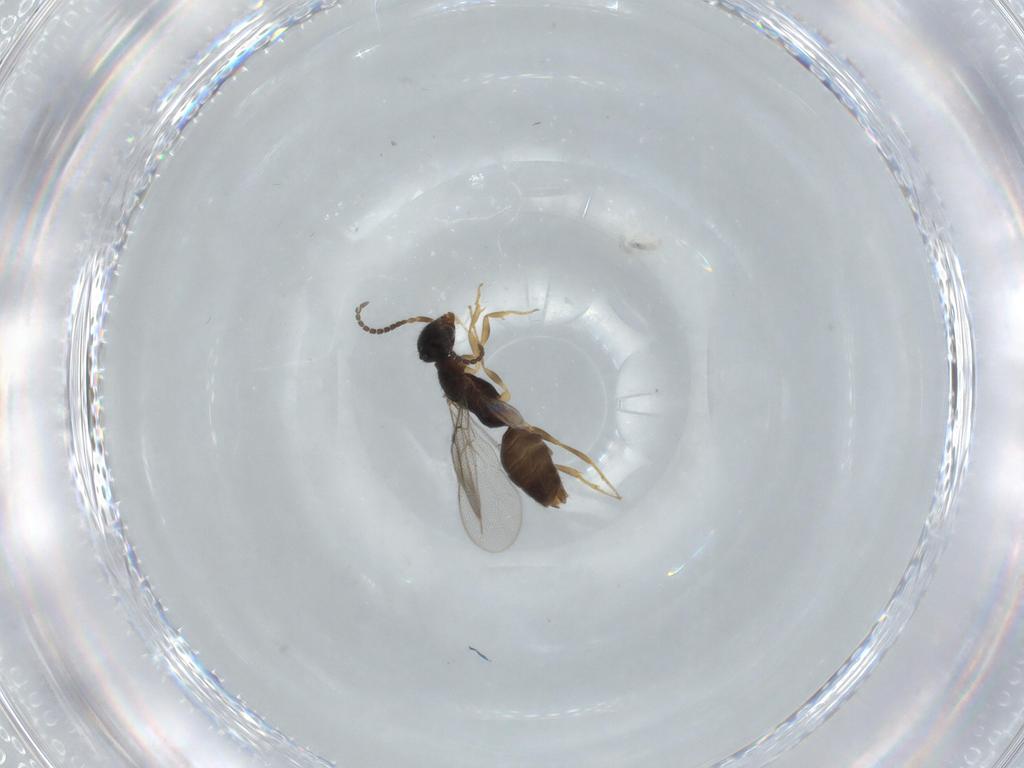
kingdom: Animalia
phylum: Arthropoda
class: Insecta
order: Hymenoptera
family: Bethylidae
